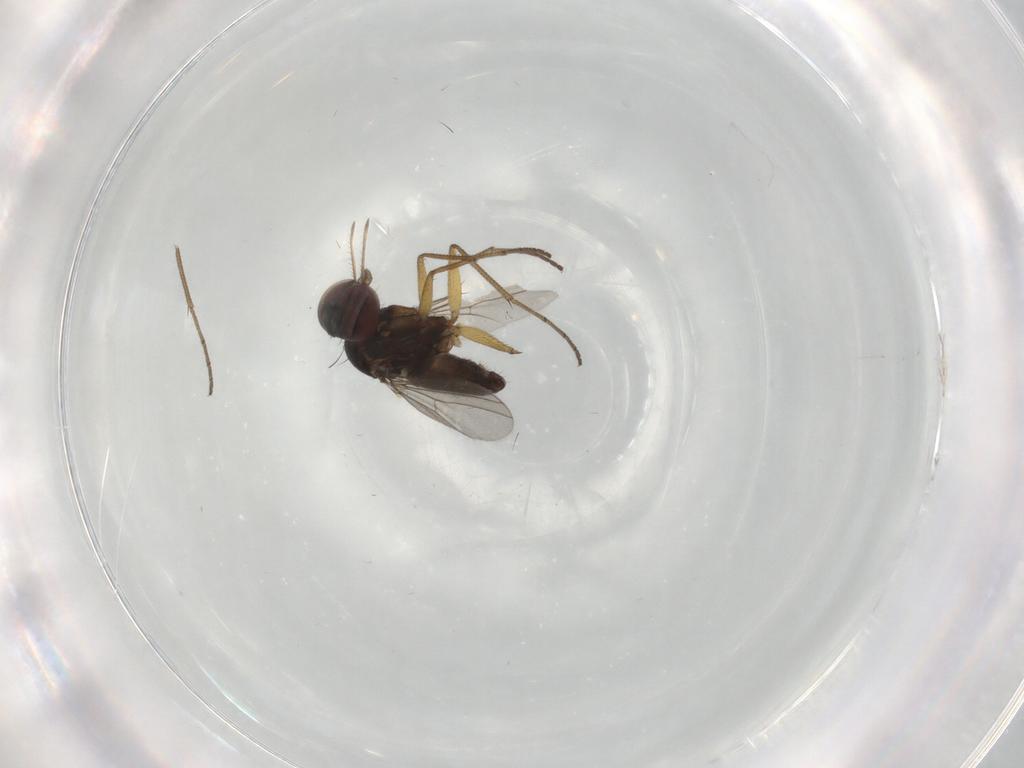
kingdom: Animalia
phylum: Arthropoda
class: Insecta
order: Diptera
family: Dolichopodidae
